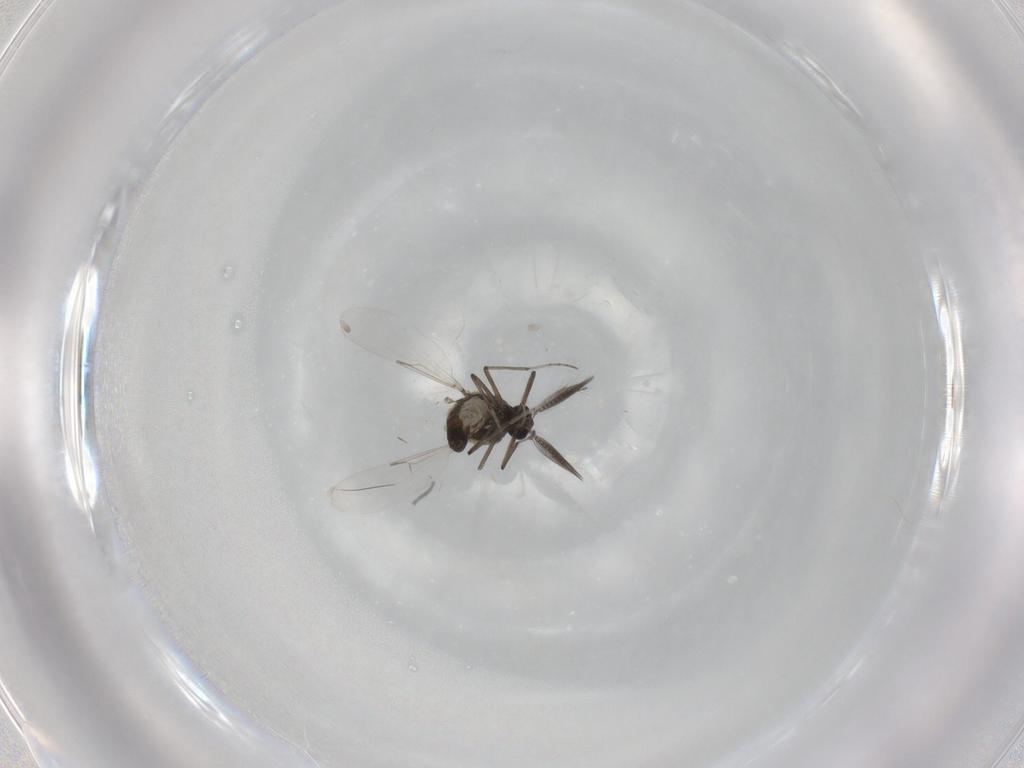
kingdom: Animalia
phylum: Arthropoda
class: Insecta
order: Diptera
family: Ceratopogonidae
